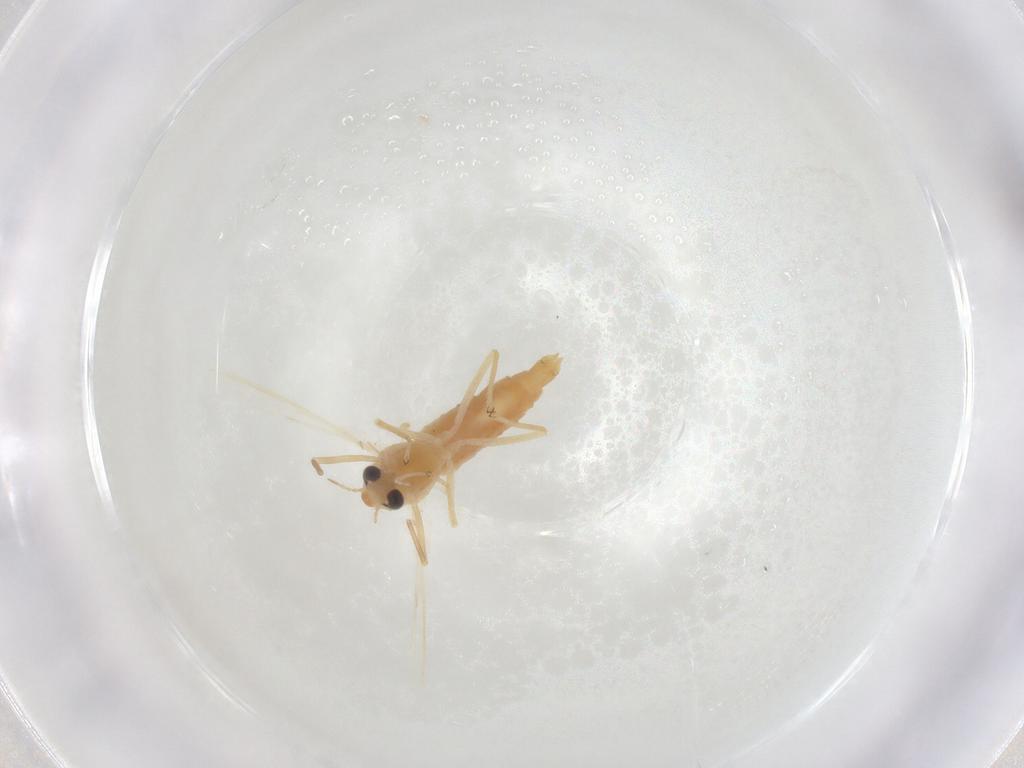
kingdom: Animalia
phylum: Arthropoda
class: Insecta
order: Diptera
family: Chironomidae
